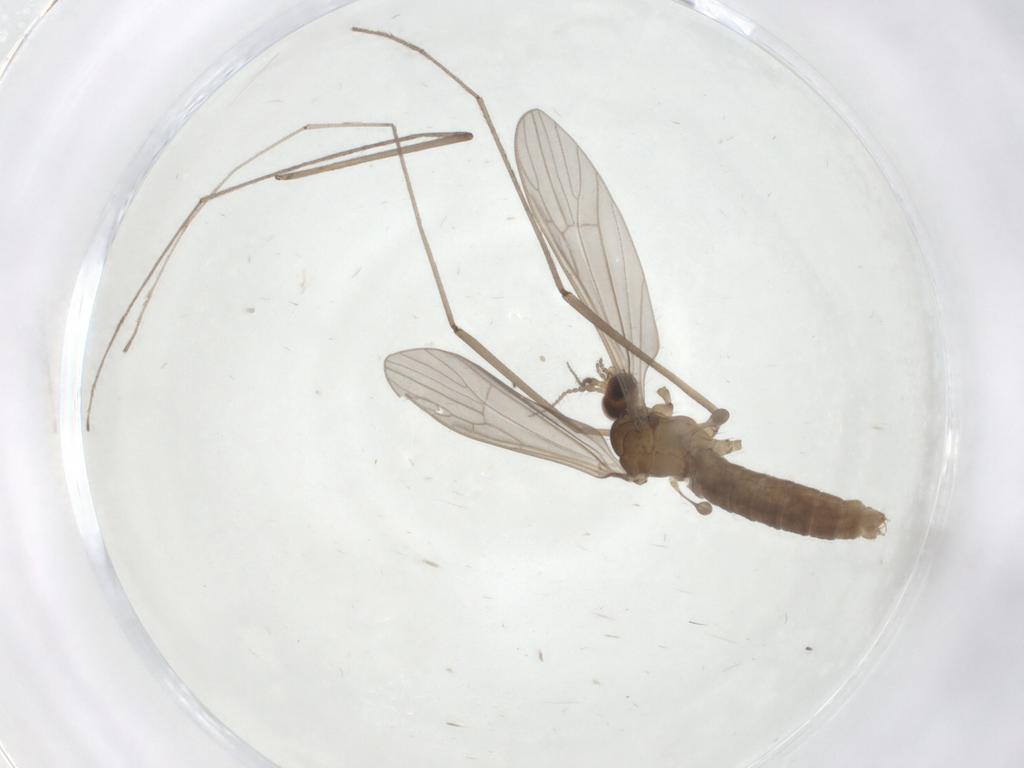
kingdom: Animalia
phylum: Arthropoda
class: Insecta
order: Diptera
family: Limoniidae
